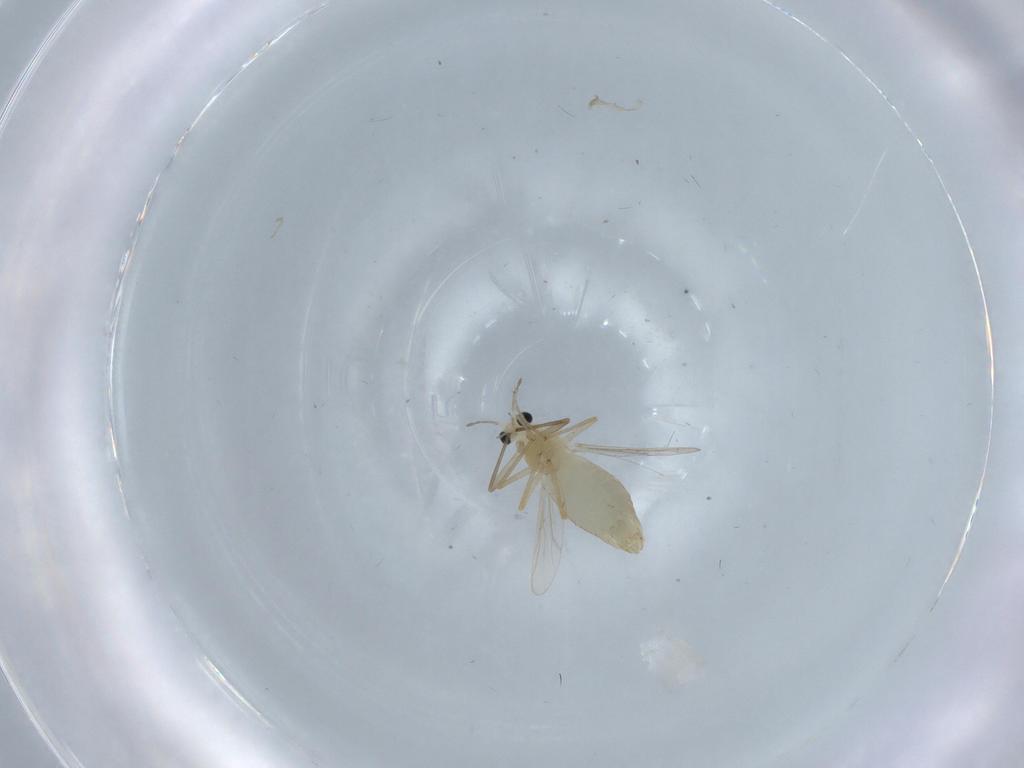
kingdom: Animalia
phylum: Arthropoda
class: Insecta
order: Diptera
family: Chironomidae
